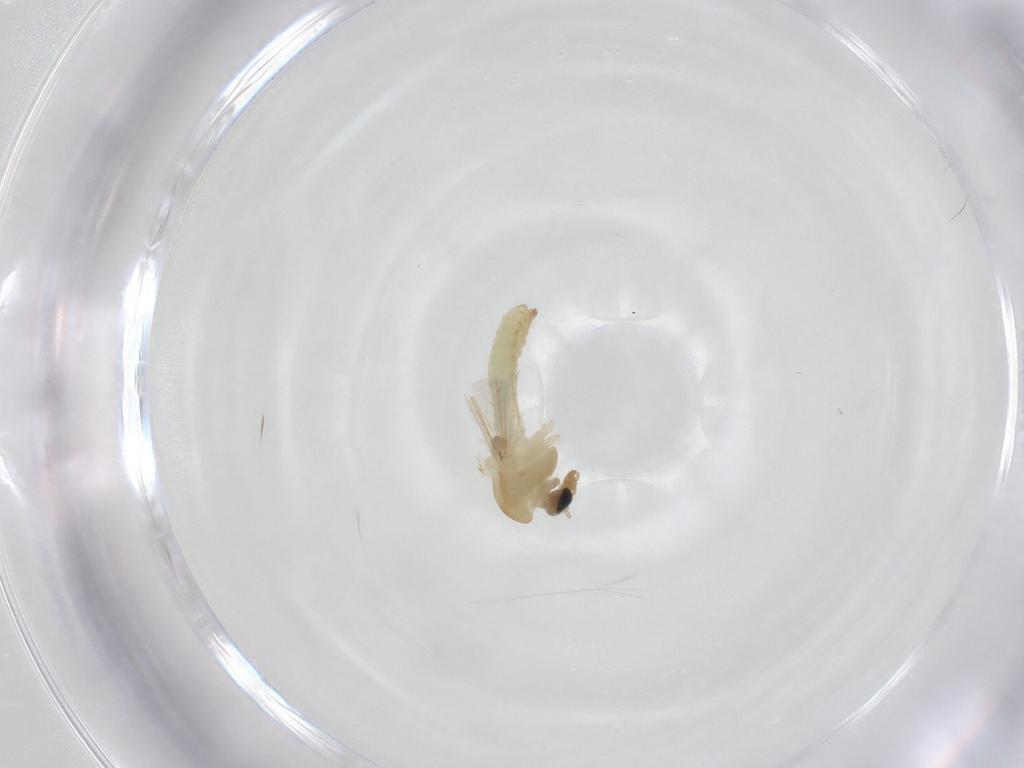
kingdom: Animalia
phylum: Arthropoda
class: Insecta
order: Diptera
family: Chironomidae
